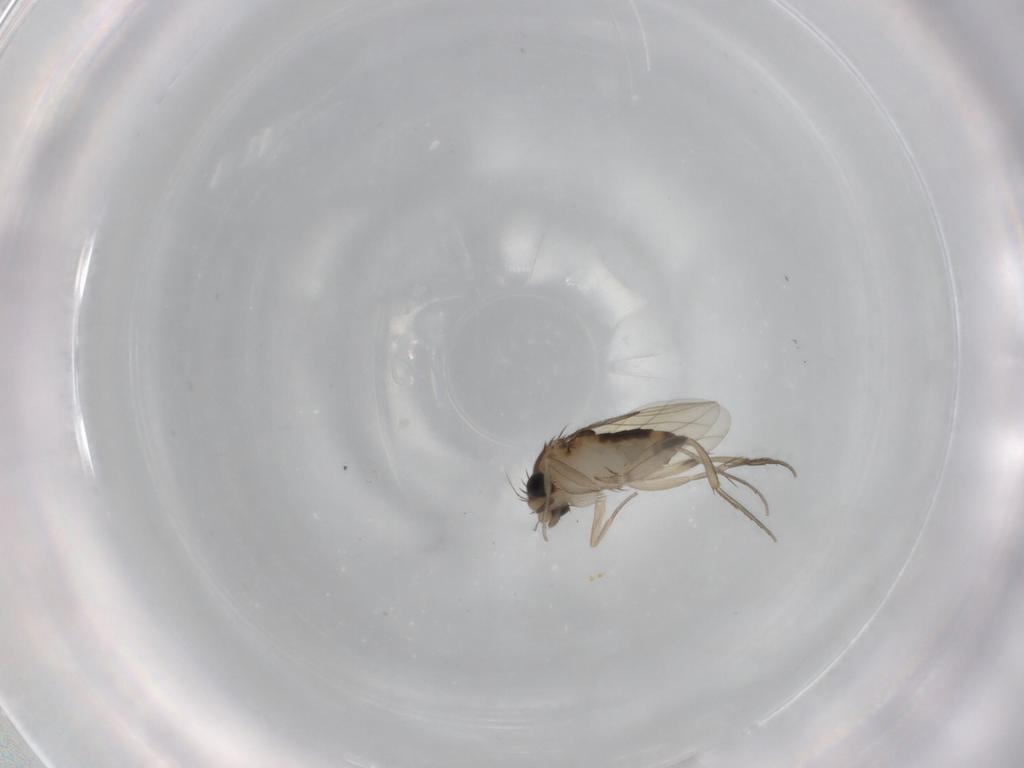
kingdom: Animalia
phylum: Arthropoda
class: Insecta
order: Diptera
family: Phoridae
